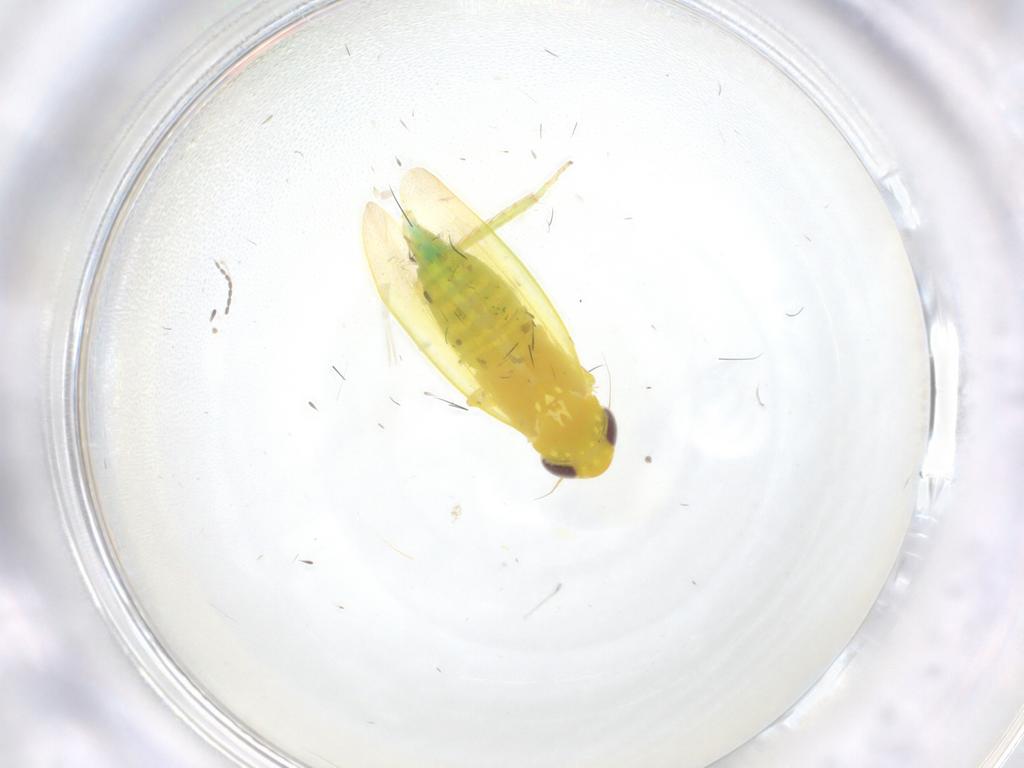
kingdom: Animalia
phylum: Arthropoda
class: Insecta
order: Hemiptera
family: Cicadellidae
